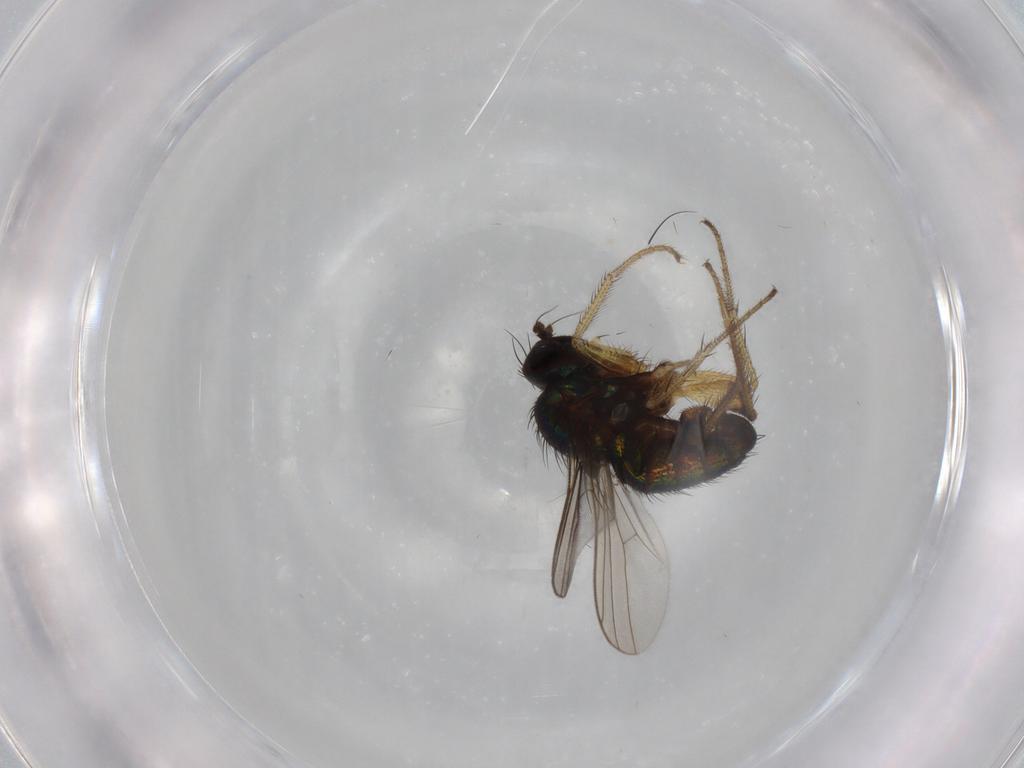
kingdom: Animalia
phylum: Arthropoda
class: Insecta
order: Diptera
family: Dolichopodidae
